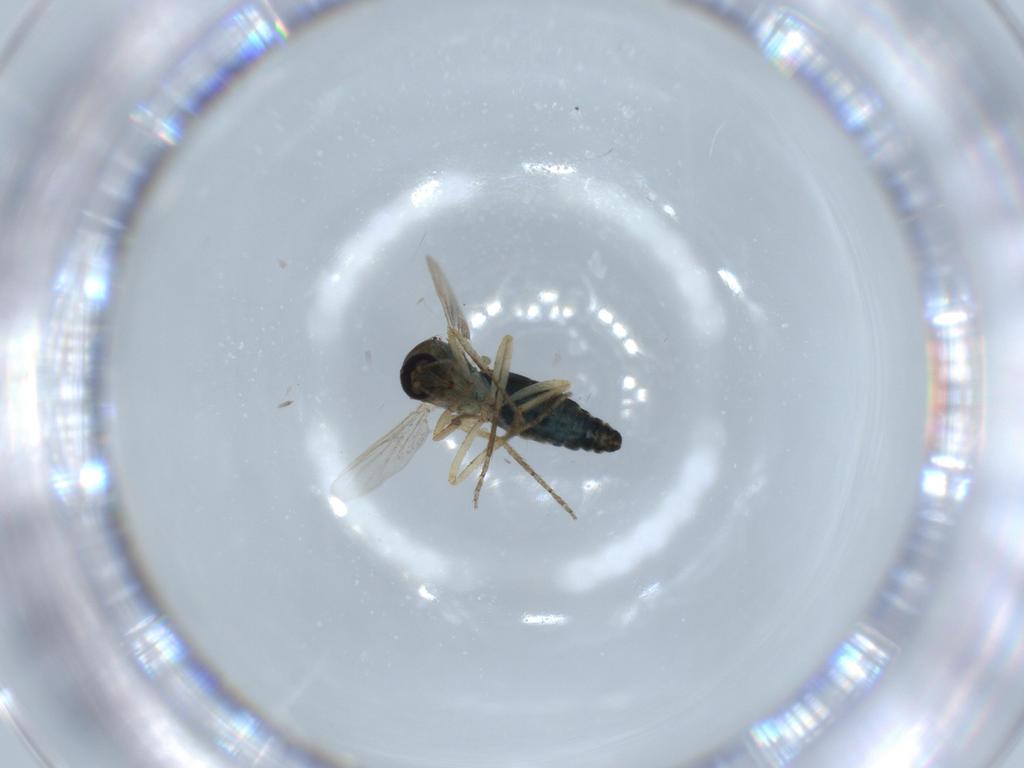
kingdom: Animalia
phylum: Arthropoda
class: Insecta
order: Diptera
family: Ceratopogonidae
